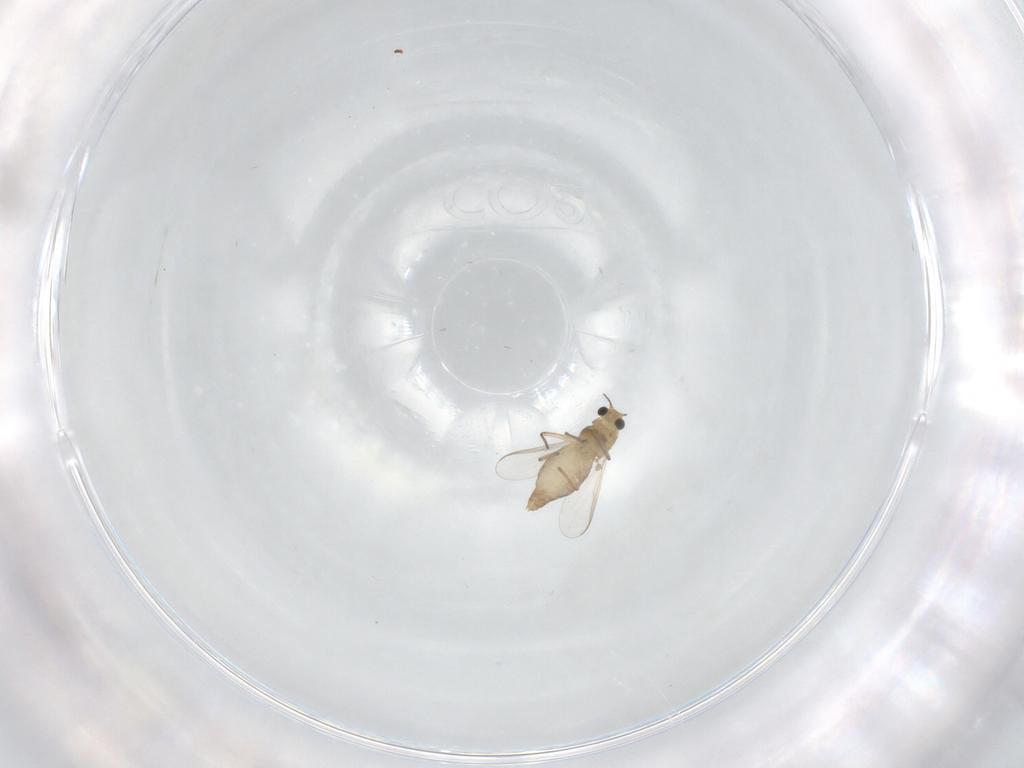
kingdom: Animalia
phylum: Arthropoda
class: Insecta
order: Diptera
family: Chironomidae
